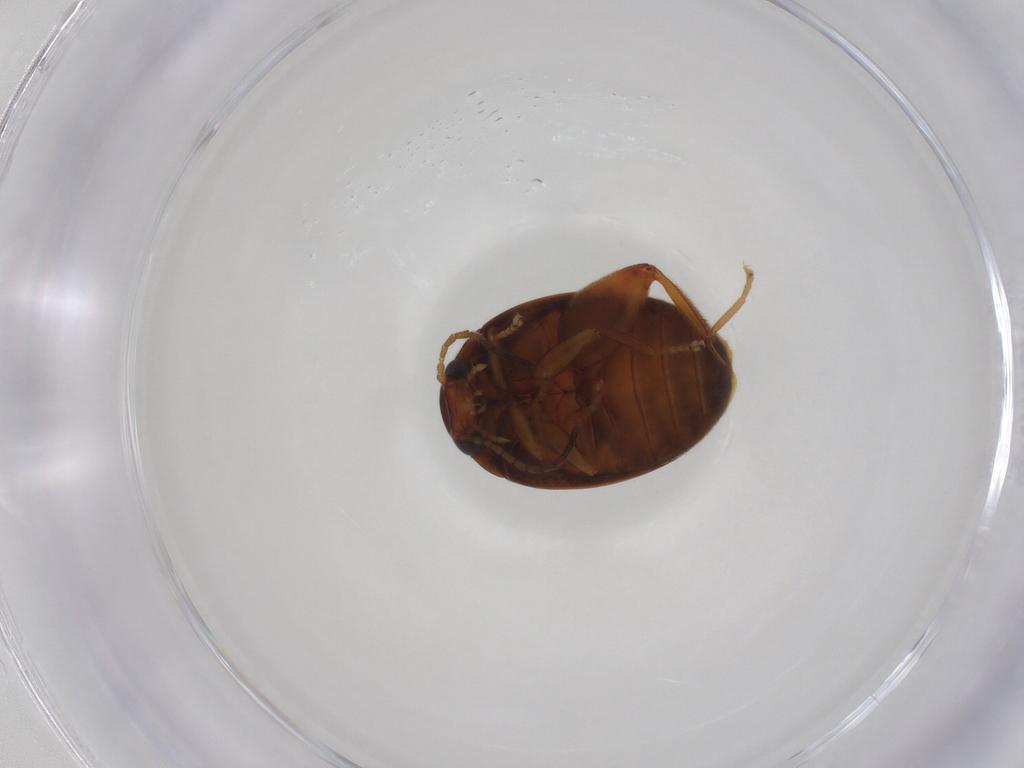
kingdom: Animalia
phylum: Arthropoda
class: Insecta
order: Coleoptera
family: Scirtidae
